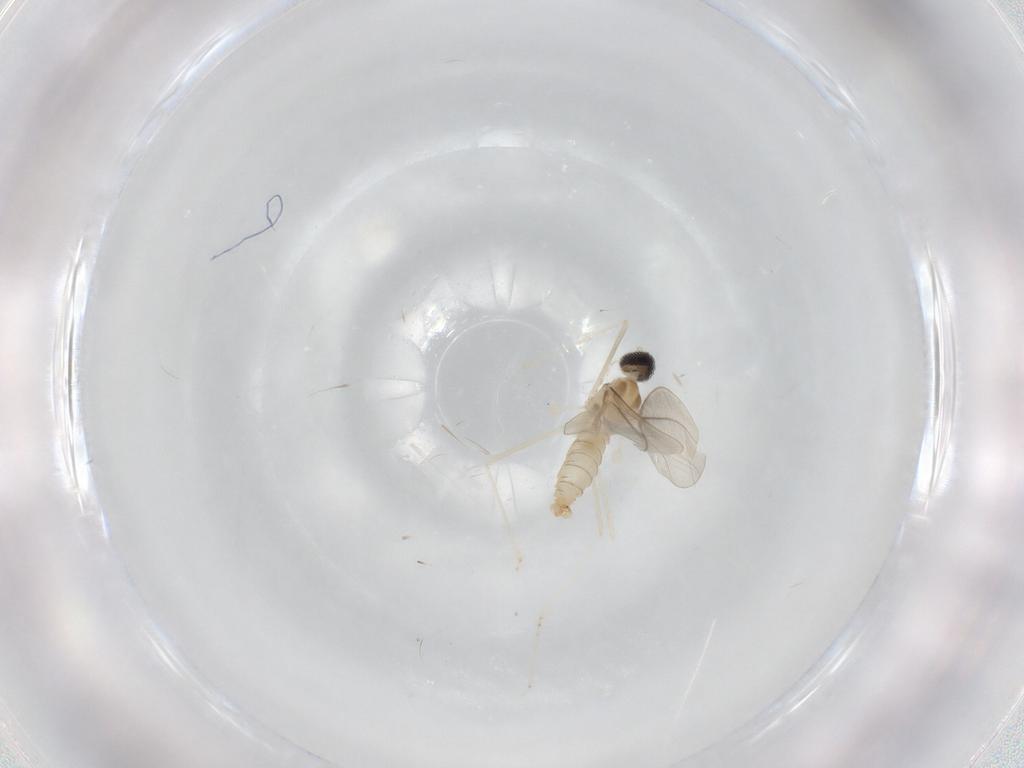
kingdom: Animalia
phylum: Arthropoda
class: Insecta
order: Diptera
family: Cecidomyiidae
